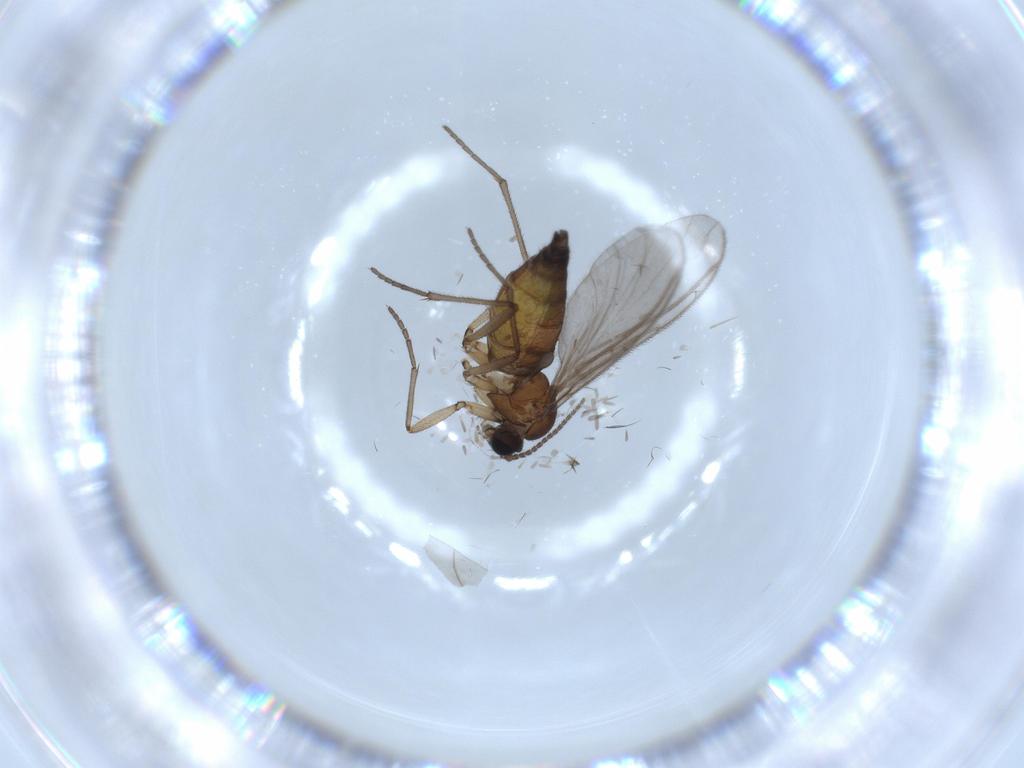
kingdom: Animalia
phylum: Arthropoda
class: Insecta
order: Diptera
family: Sciaridae
